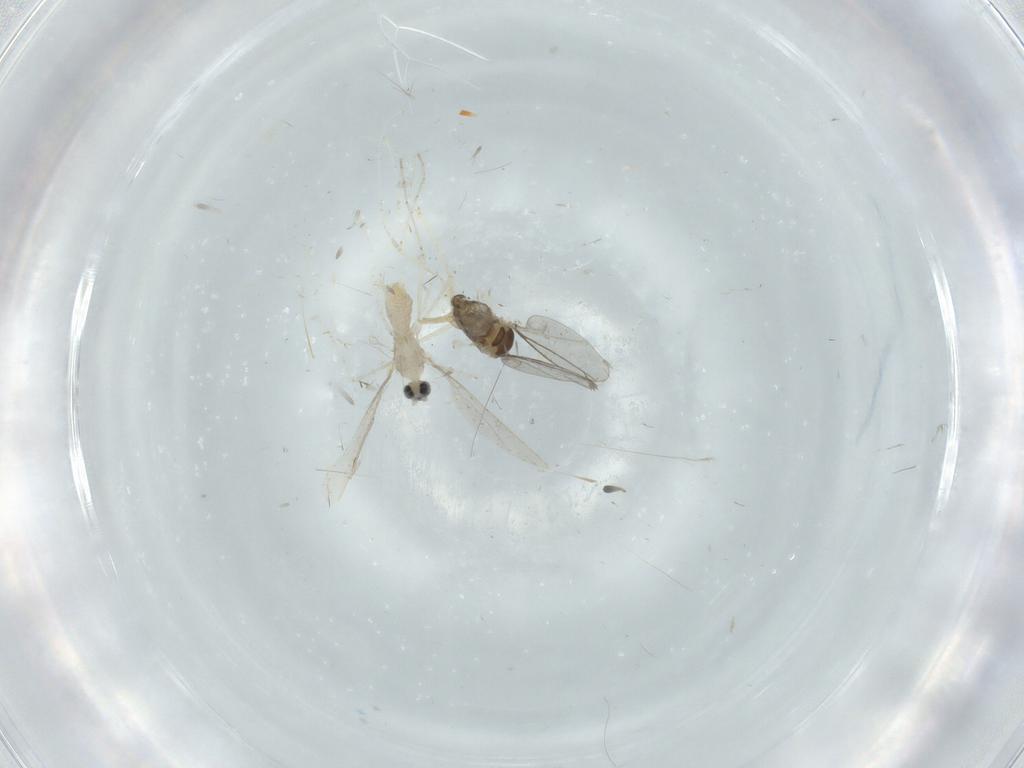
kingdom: Animalia
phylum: Arthropoda
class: Insecta
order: Diptera
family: Cecidomyiidae
